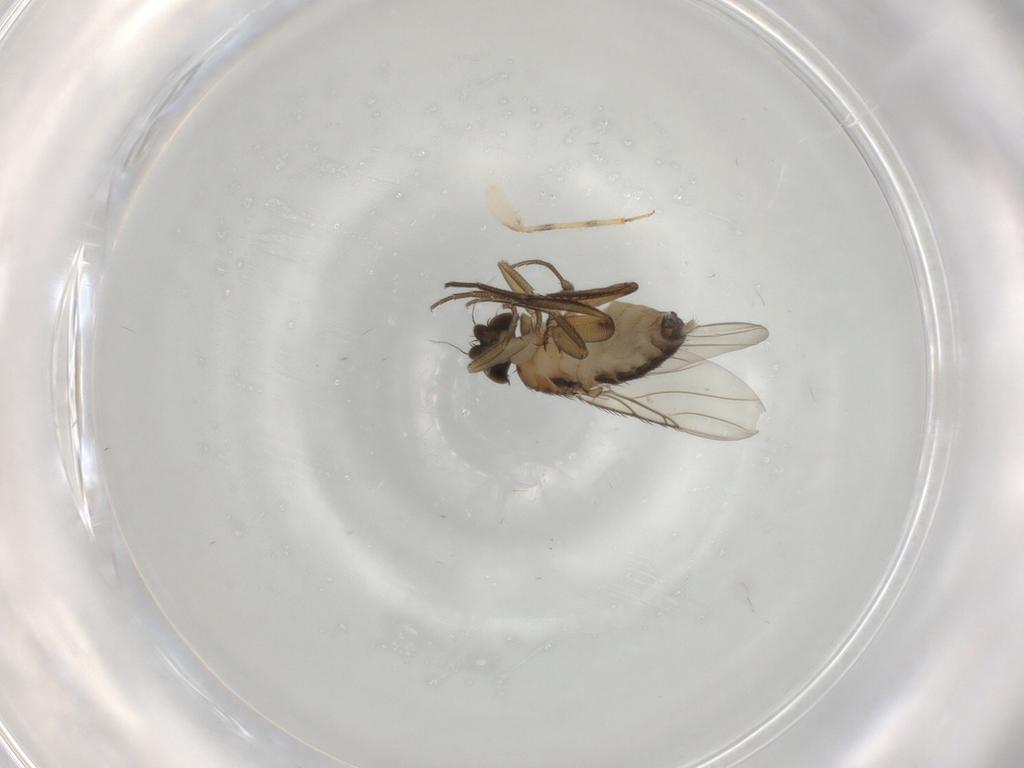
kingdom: Animalia
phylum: Arthropoda
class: Insecta
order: Diptera
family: Phoridae
